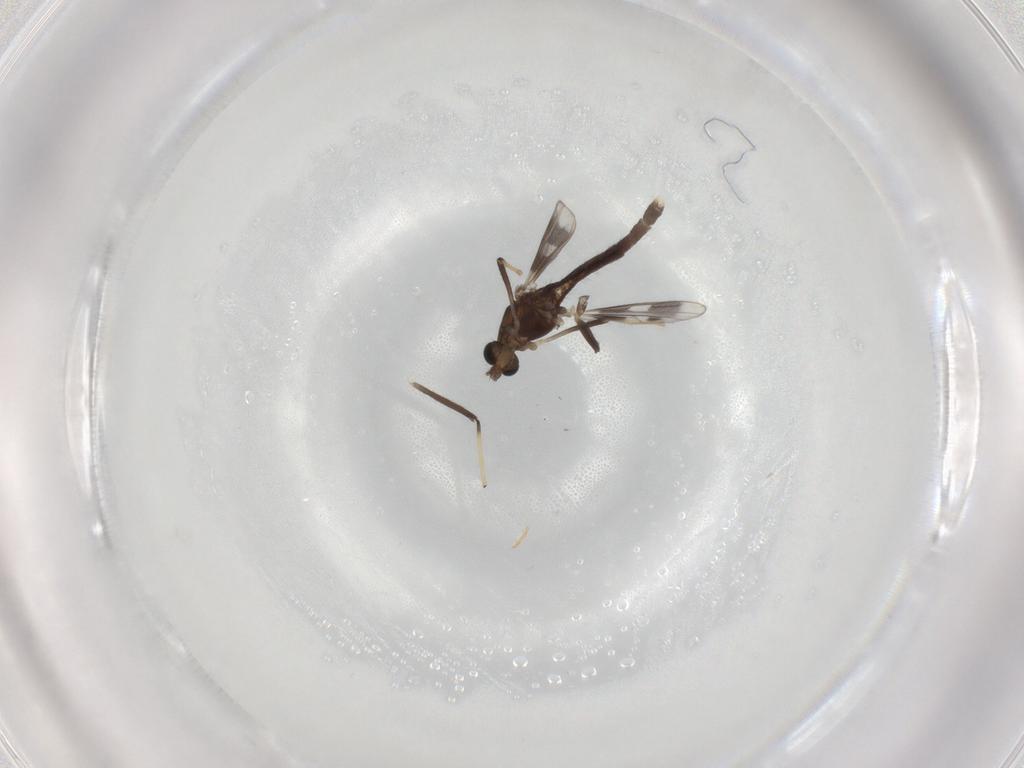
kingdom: Animalia
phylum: Arthropoda
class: Insecta
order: Diptera
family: Chironomidae
